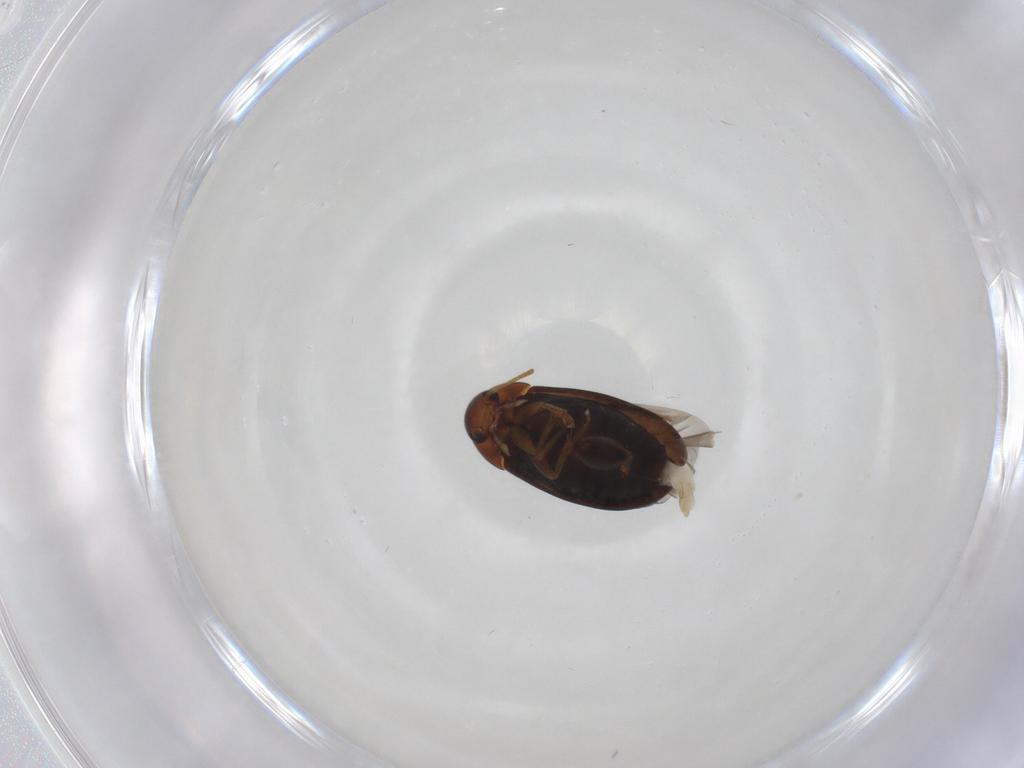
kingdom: Animalia
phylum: Arthropoda
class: Insecta
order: Coleoptera
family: Scraptiidae
